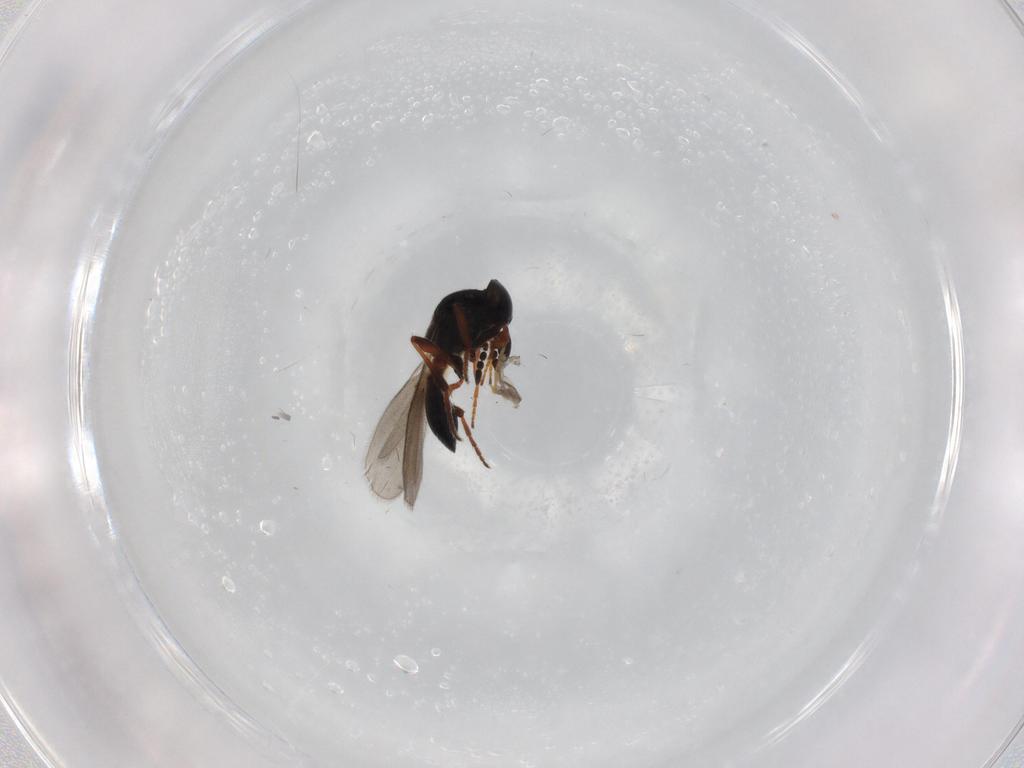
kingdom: Animalia
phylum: Arthropoda
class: Insecta
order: Hymenoptera
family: Platygastridae
